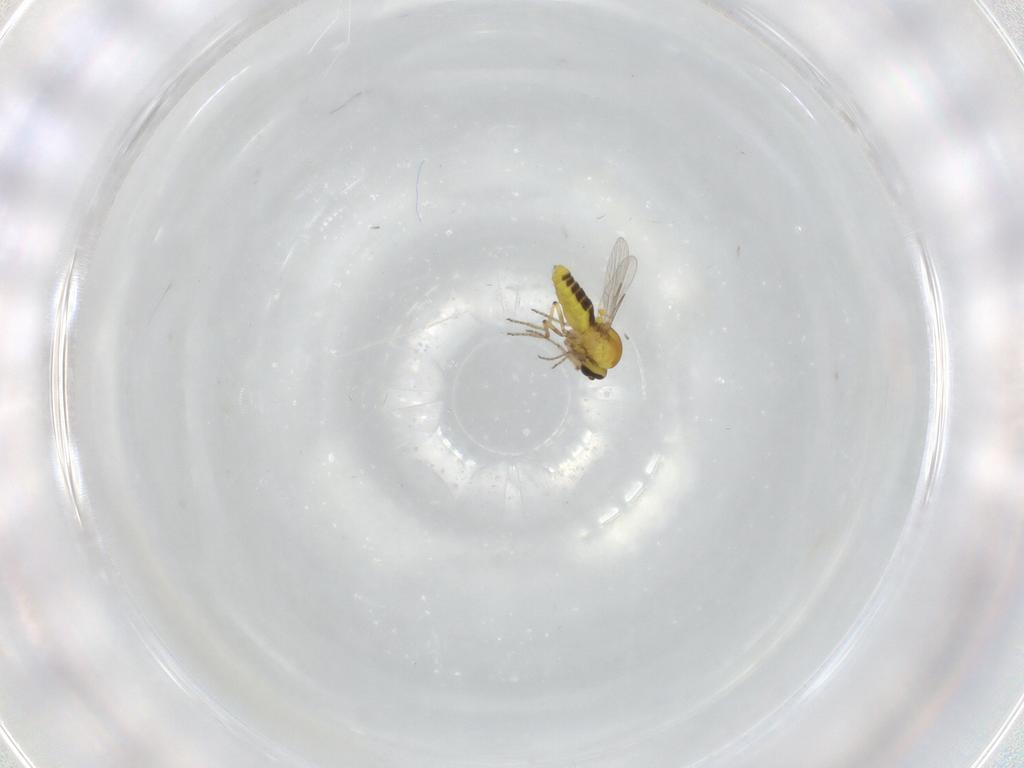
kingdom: Animalia
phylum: Arthropoda
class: Insecta
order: Diptera
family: Ceratopogonidae
